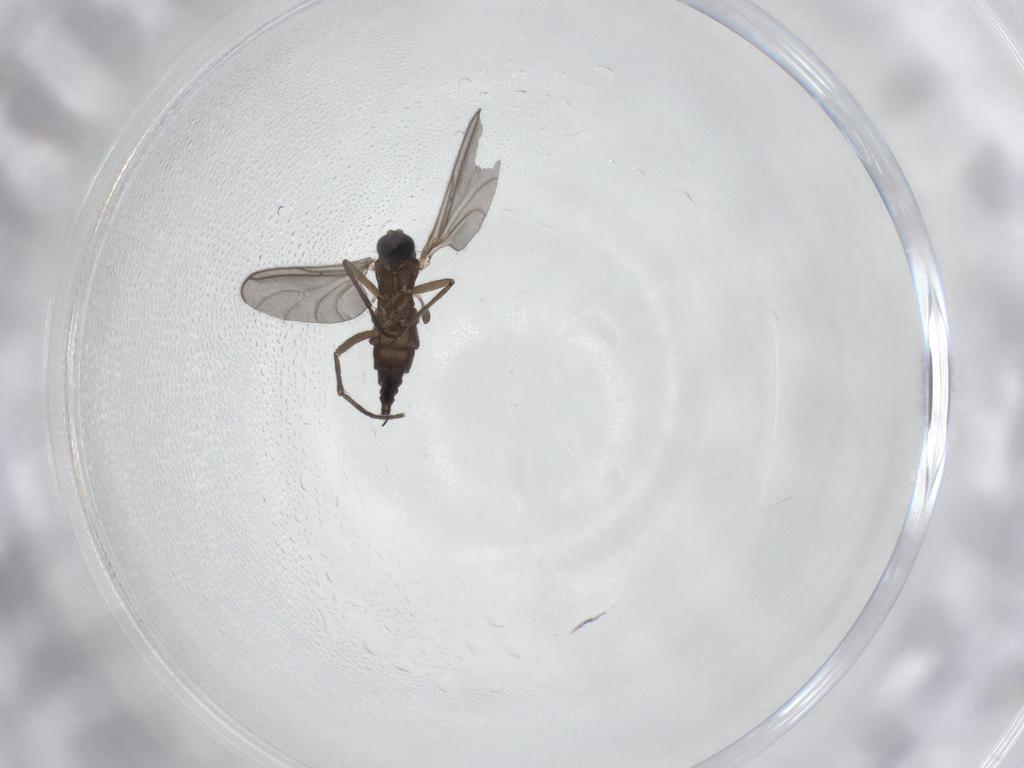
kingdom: Animalia
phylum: Arthropoda
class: Insecta
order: Diptera
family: Sciaridae
